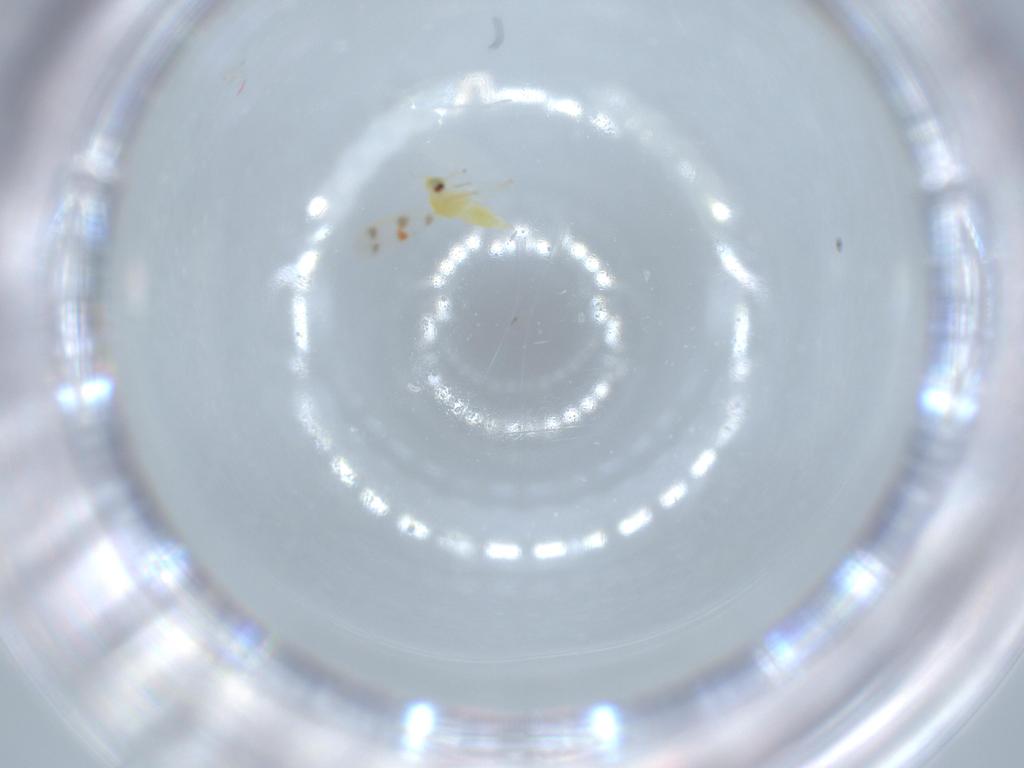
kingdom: Animalia
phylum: Arthropoda
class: Insecta
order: Hemiptera
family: Aleyrodidae
